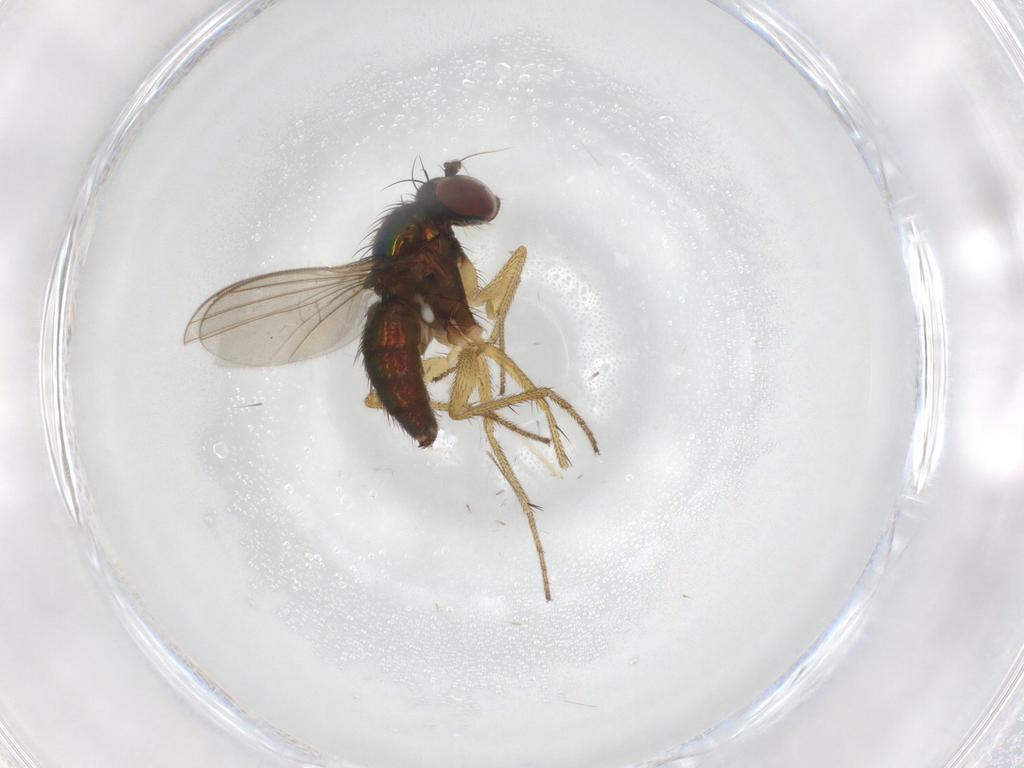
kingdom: Animalia
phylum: Arthropoda
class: Insecta
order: Diptera
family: Chironomidae
